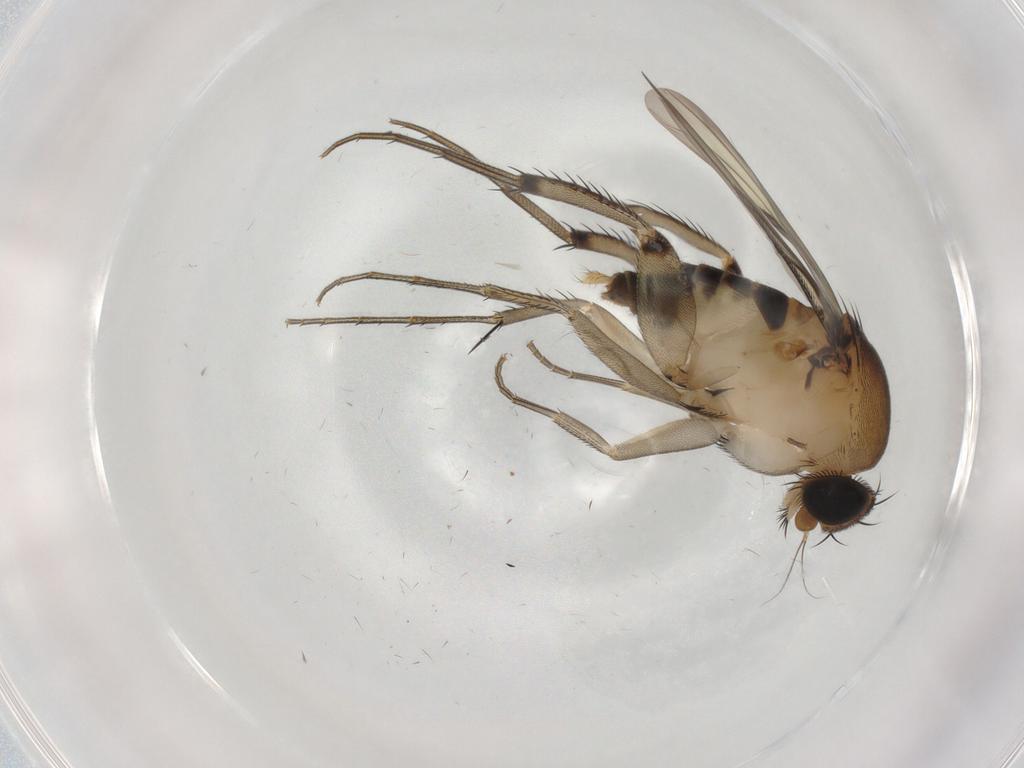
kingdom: Animalia
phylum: Arthropoda
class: Insecta
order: Diptera
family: Phoridae
